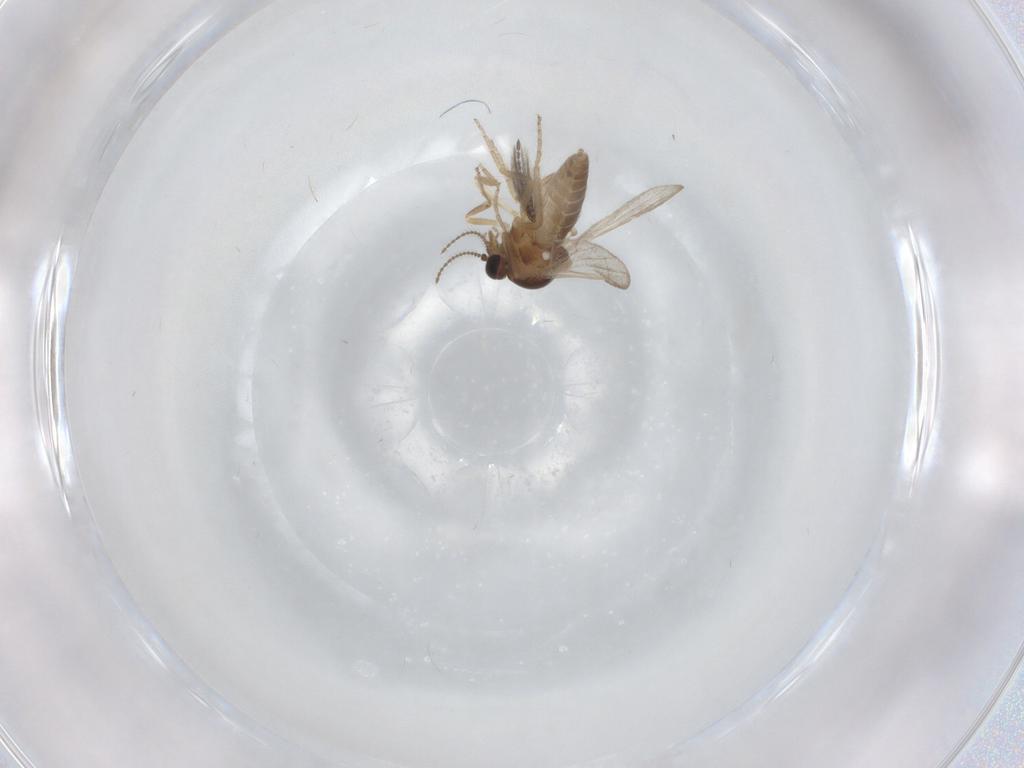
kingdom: Animalia
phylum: Arthropoda
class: Insecta
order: Diptera
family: Ceratopogonidae
